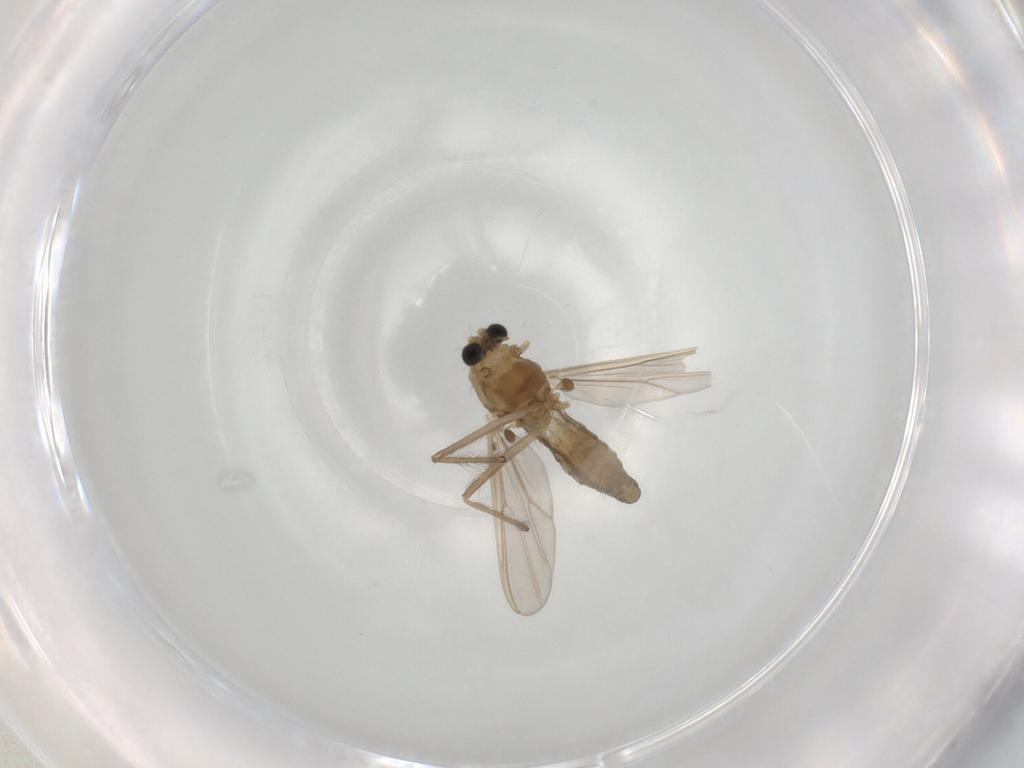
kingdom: Animalia
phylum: Arthropoda
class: Insecta
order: Diptera
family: Chironomidae
